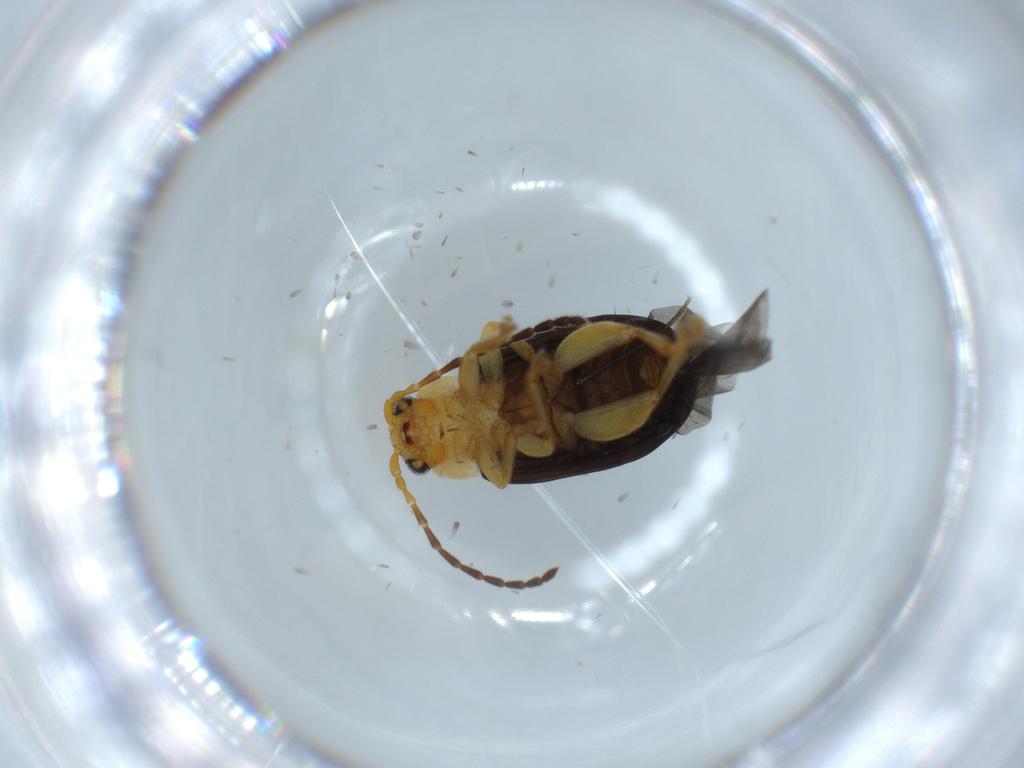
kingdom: Animalia
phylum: Arthropoda
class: Insecta
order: Coleoptera
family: Chrysomelidae
